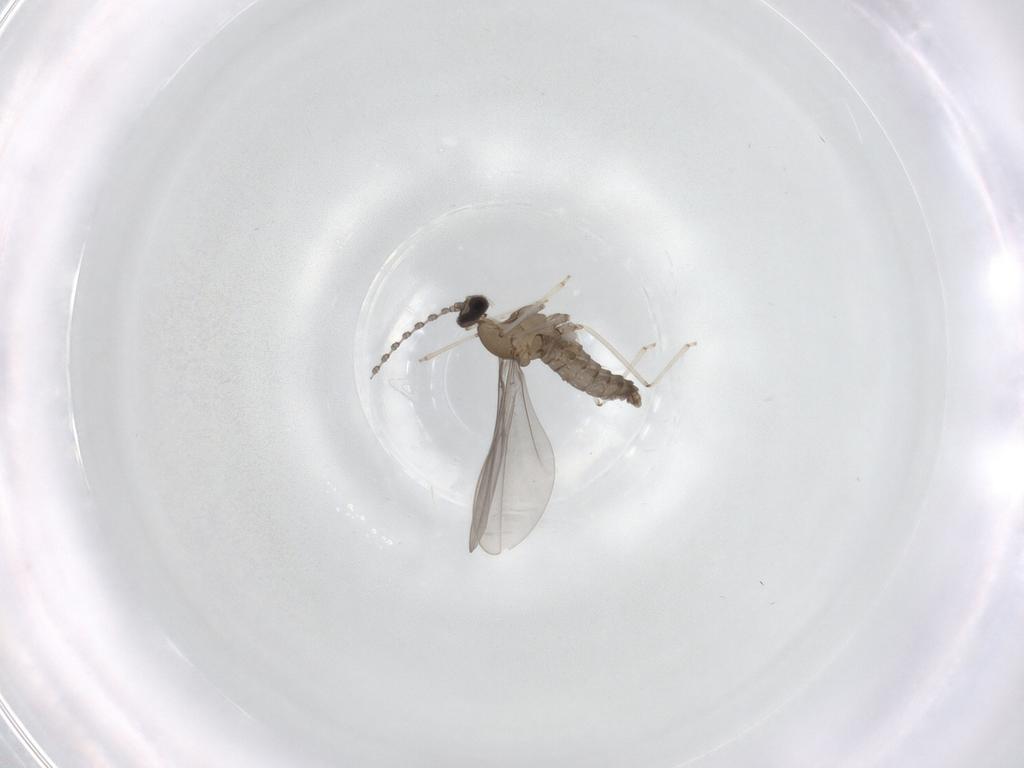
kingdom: Animalia
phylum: Arthropoda
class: Insecta
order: Diptera
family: Cecidomyiidae
